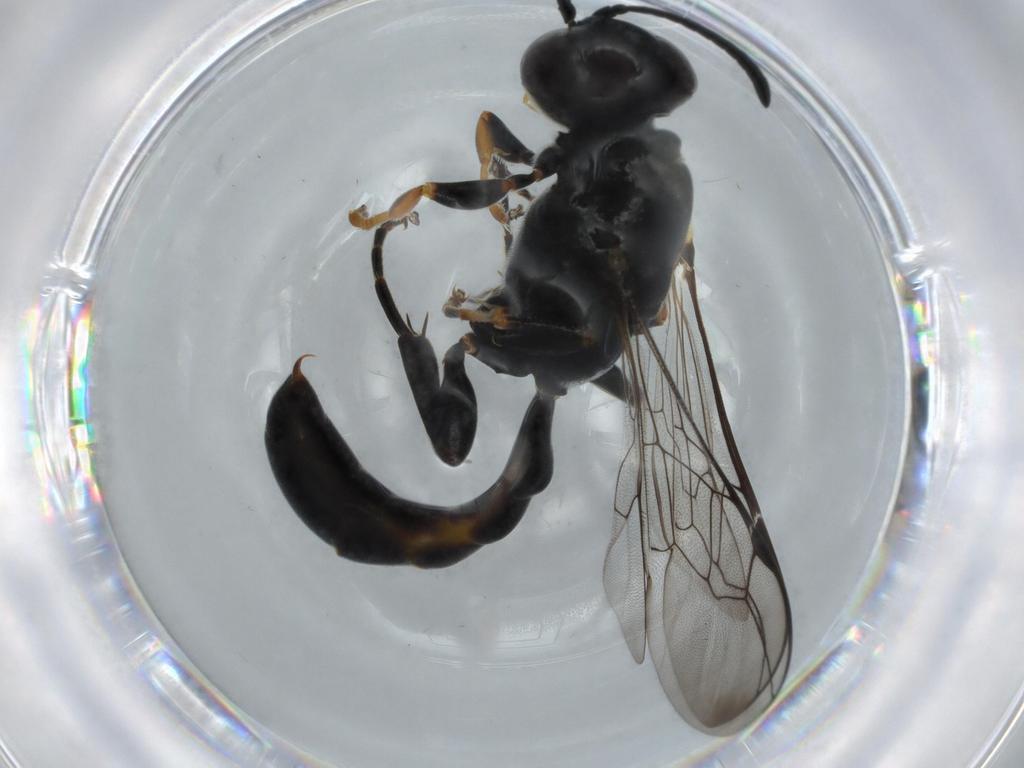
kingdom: Animalia
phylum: Arthropoda
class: Insecta
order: Hymenoptera
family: Crabronidae
